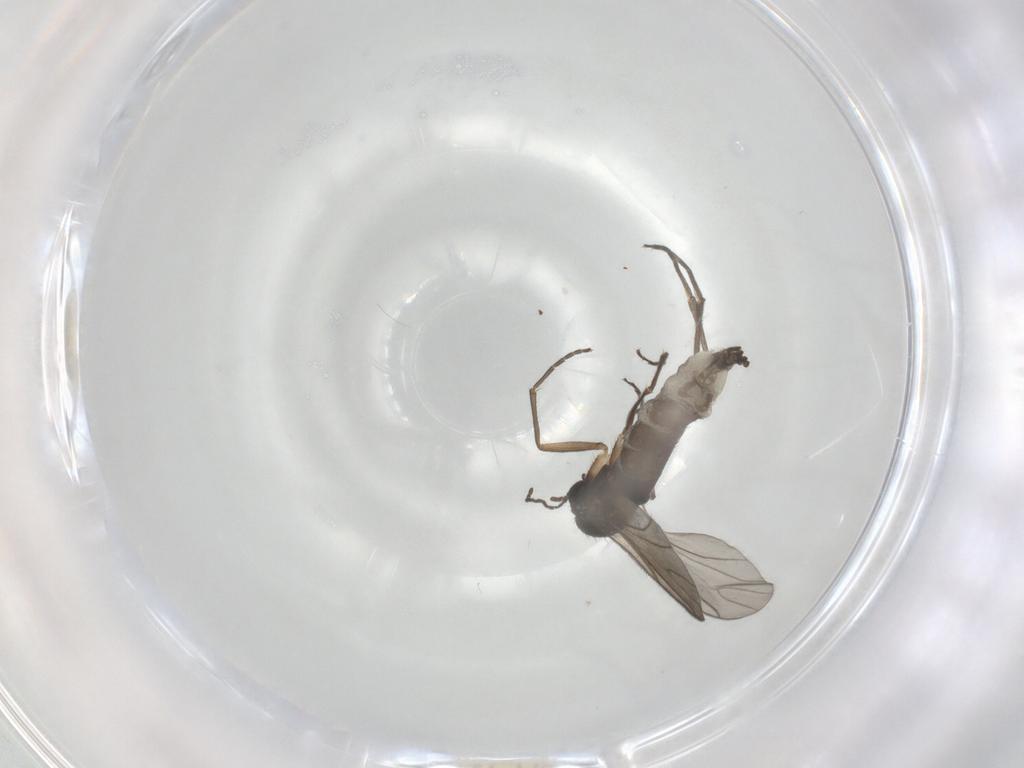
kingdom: Animalia
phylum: Arthropoda
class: Insecta
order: Diptera
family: Sciaridae
